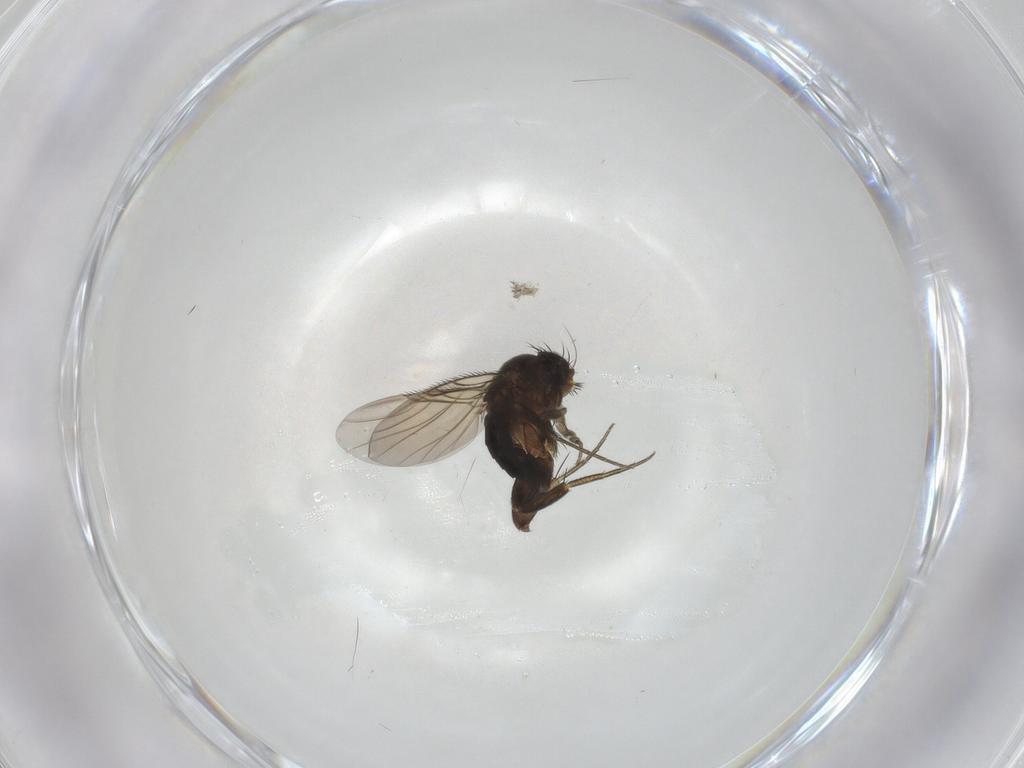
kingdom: Animalia
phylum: Arthropoda
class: Insecta
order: Diptera
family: Phoridae
